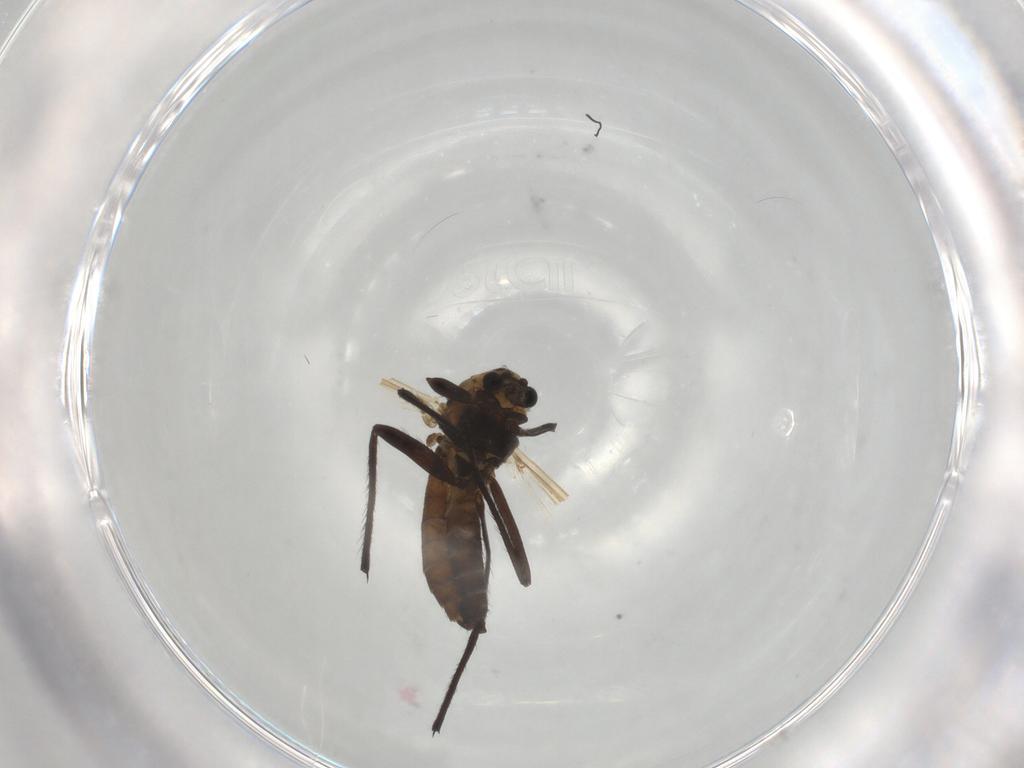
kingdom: Animalia
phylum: Arthropoda
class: Insecta
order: Diptera
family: Chironomidae
